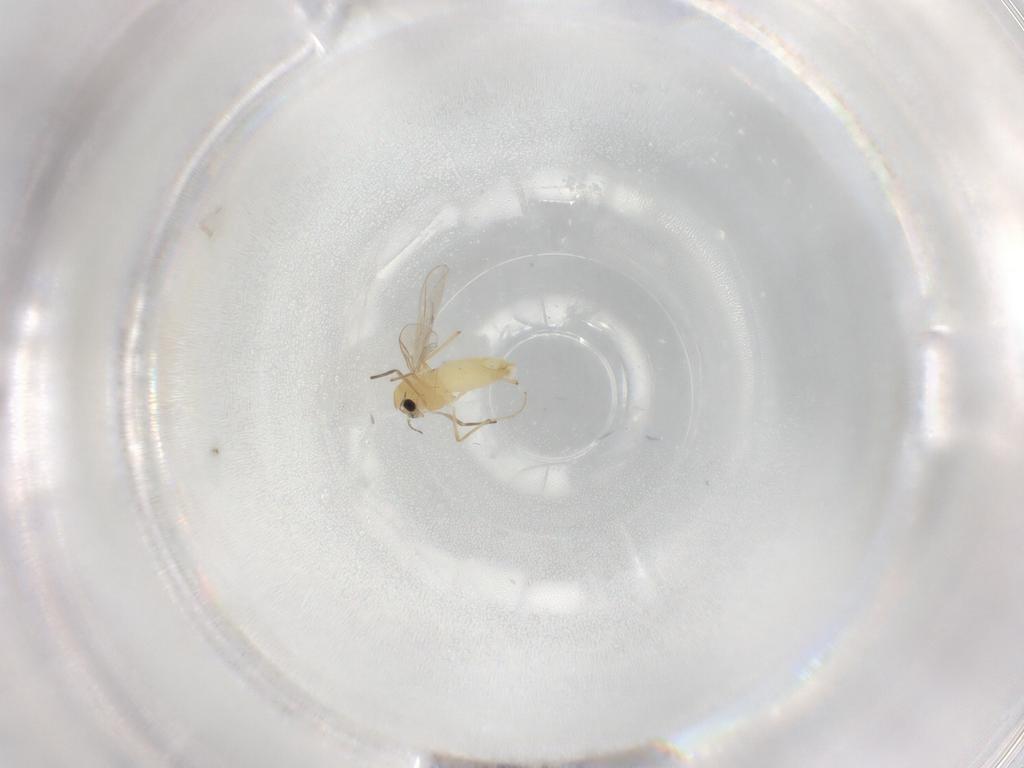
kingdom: Animalia
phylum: Arthropoda
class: Insecta
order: Diptera
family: Chironomidae
